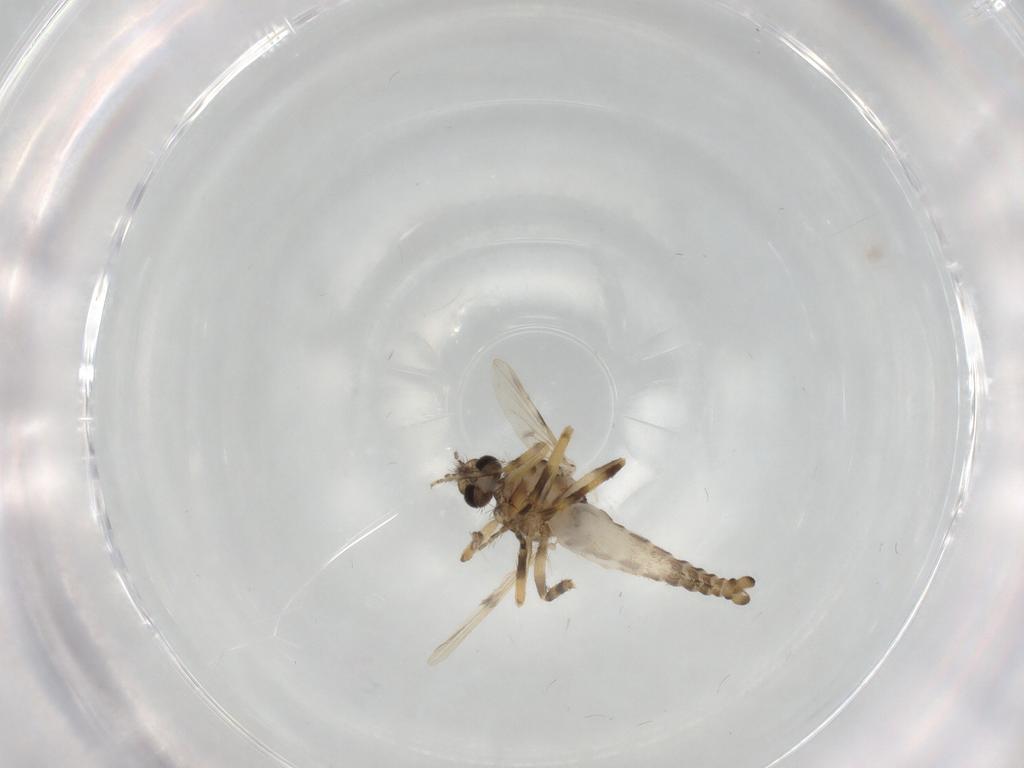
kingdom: Animalia
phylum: Arthropoda
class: Insecta
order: Diptera
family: Ceratopogonidae
